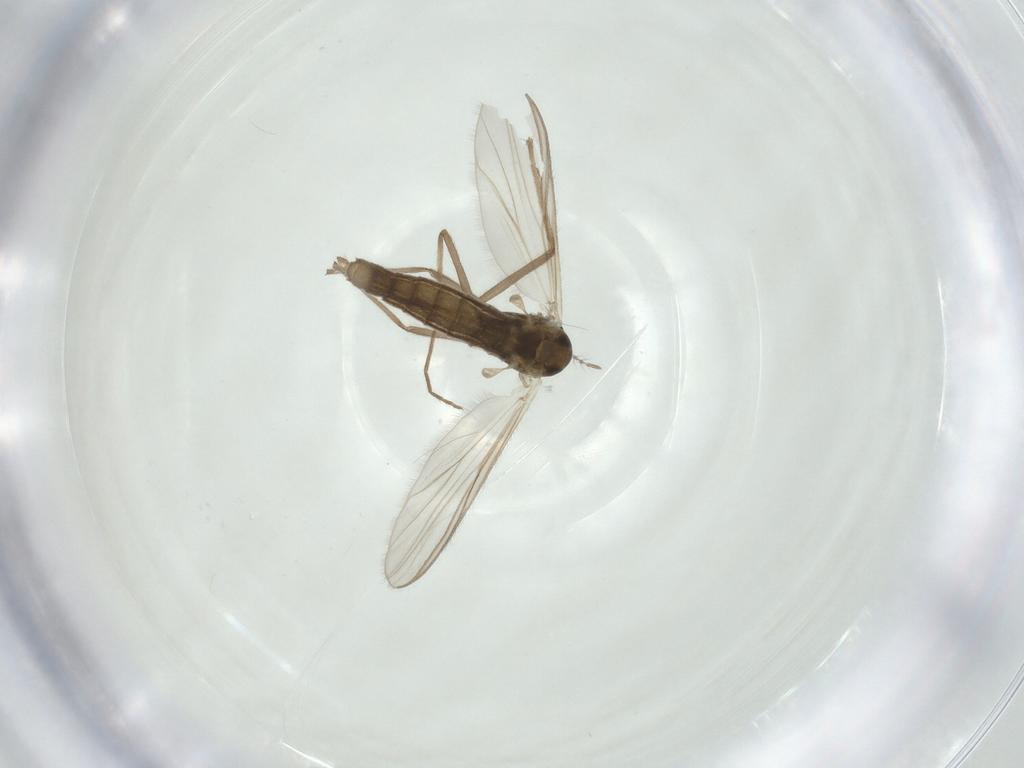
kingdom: Animalia
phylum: Arthropoda
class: Insecta
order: Diptera
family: Chironomidae
